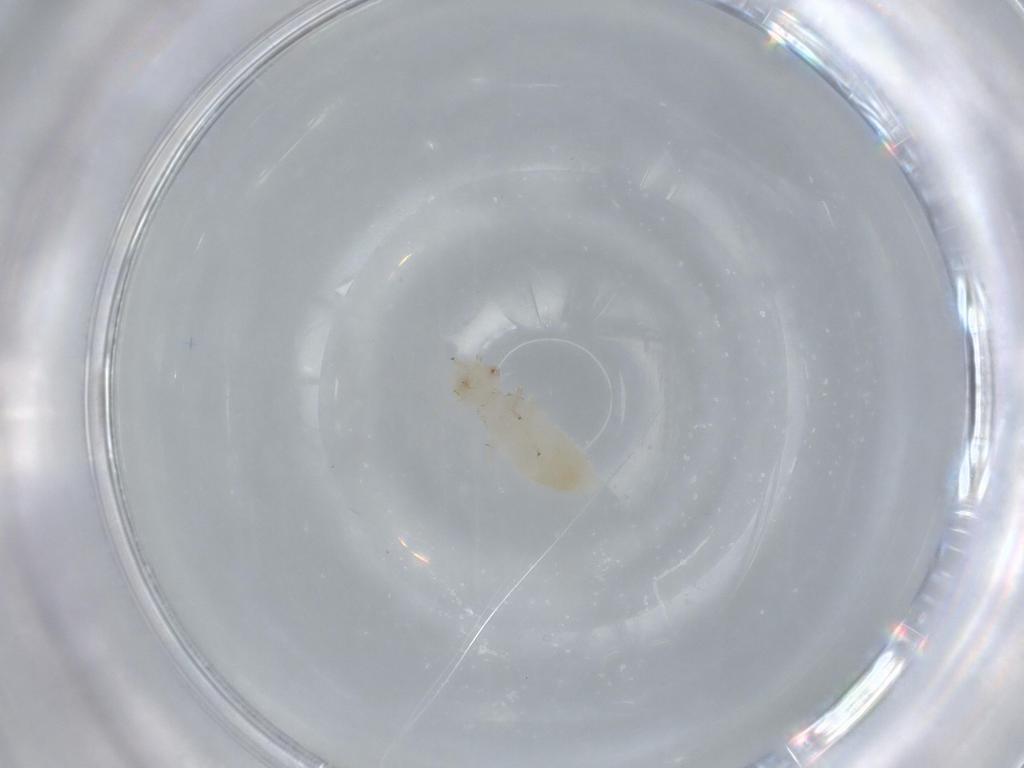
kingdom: Animalia
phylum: Arthropoda
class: Insecta
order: Psocodea
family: Caeciliusidae
